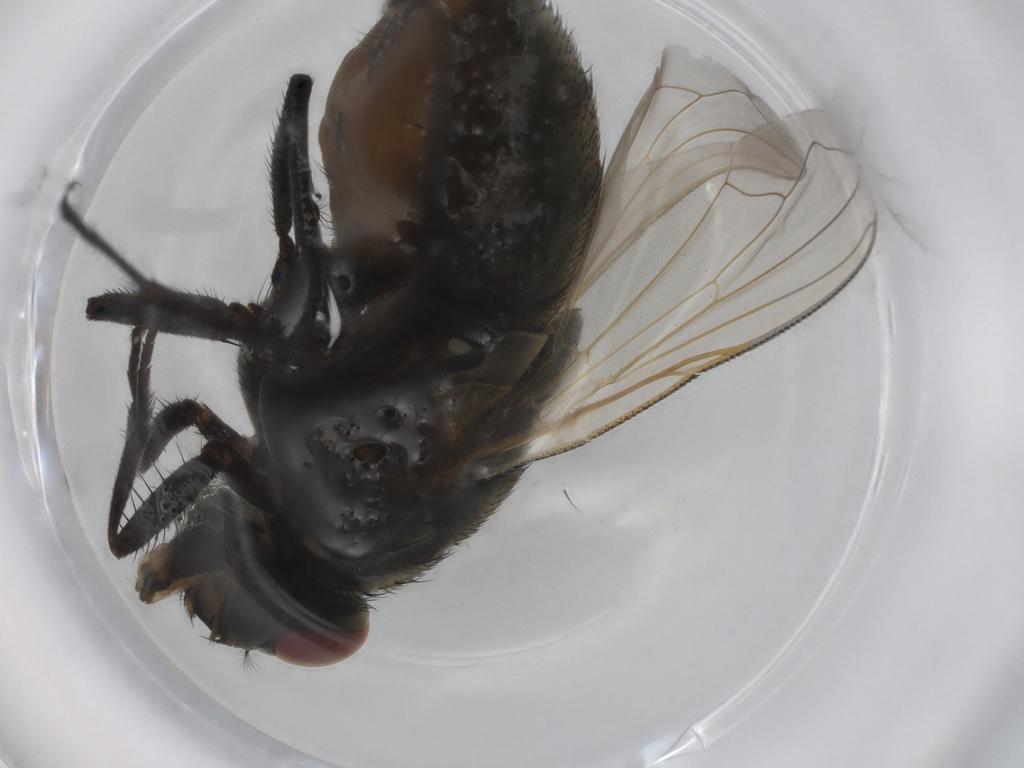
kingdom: Animalia
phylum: Arthropoda
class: Insecta
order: Diptera
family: Muscidae
